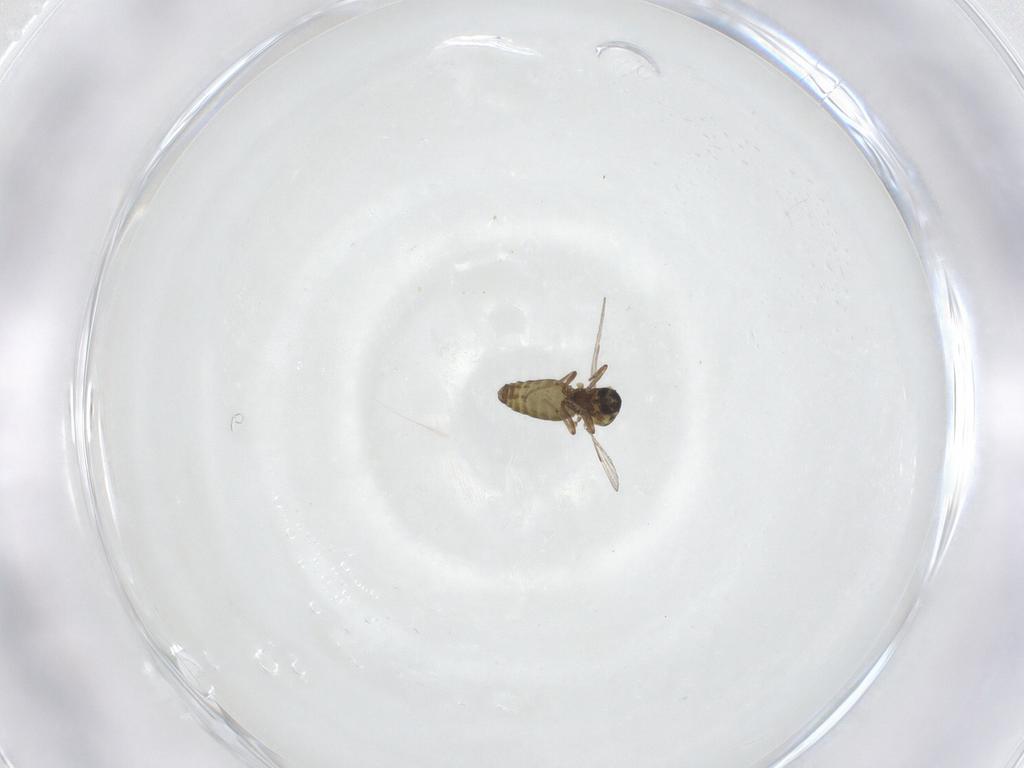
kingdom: Animalia
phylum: Arthropoda
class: Insecta
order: Diptera
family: Ceratopogonidae
